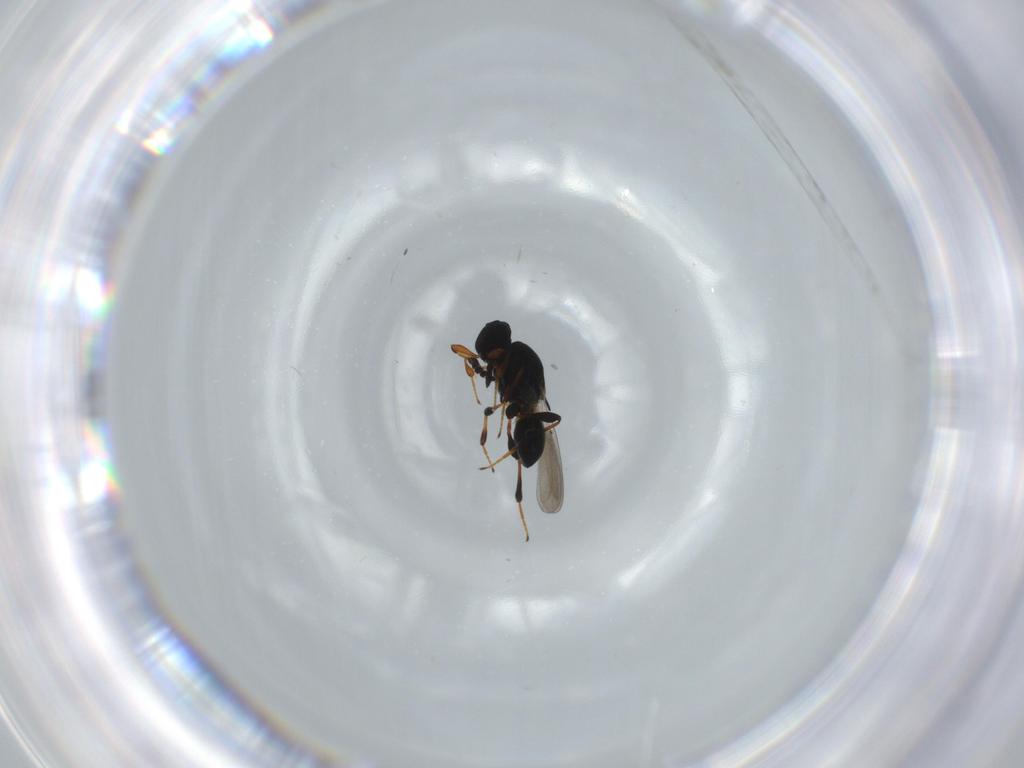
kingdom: Animalia
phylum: Arthropoda
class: Insecta
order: Hymenoptera
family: Platygastridae
